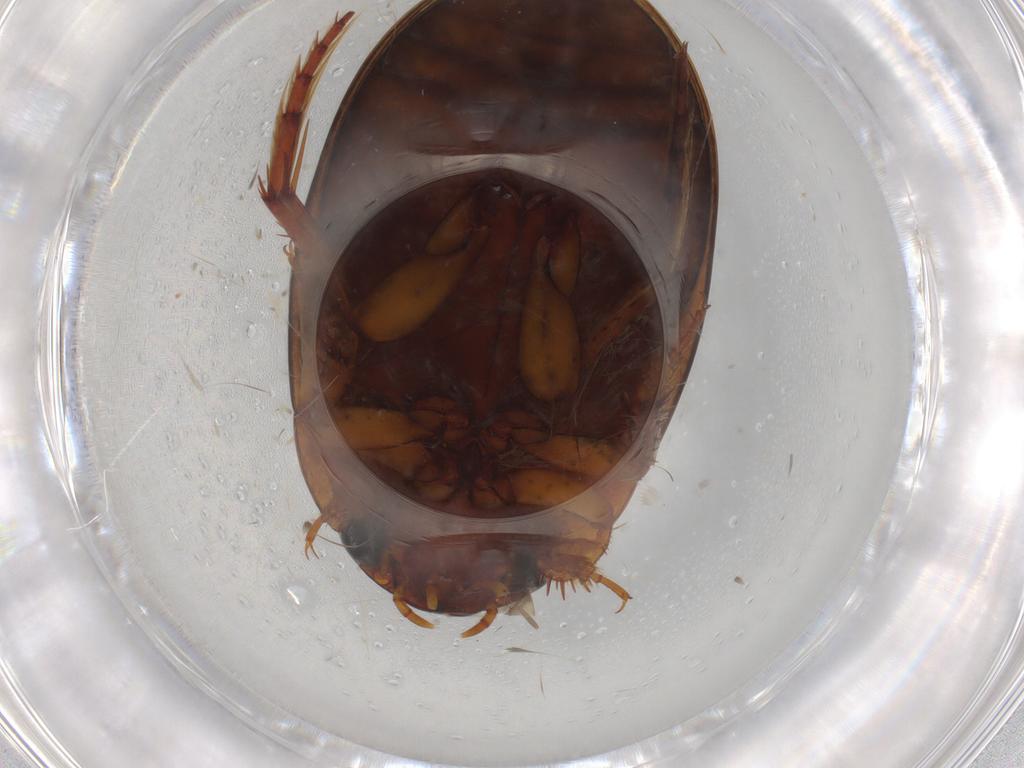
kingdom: Animalia
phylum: Arthropoda
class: Insecta
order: Coleoptera
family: Dytiscidae
